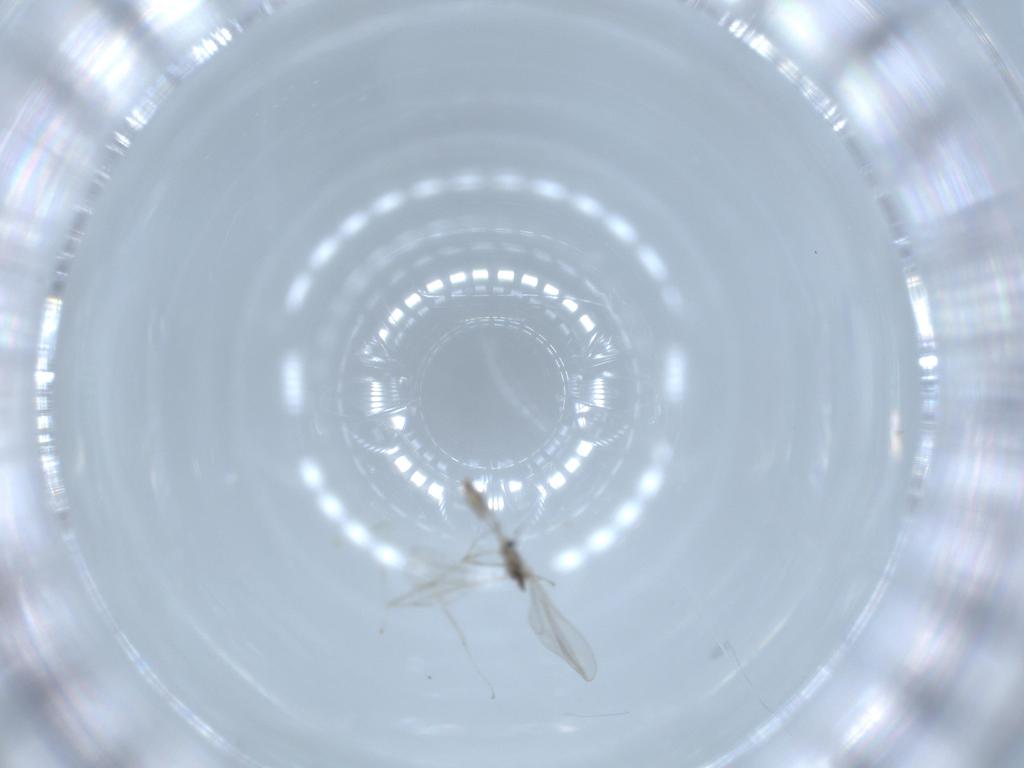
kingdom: Animalia
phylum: Arthropoda
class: Insecta
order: Diptera
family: Cecidomyiidae
